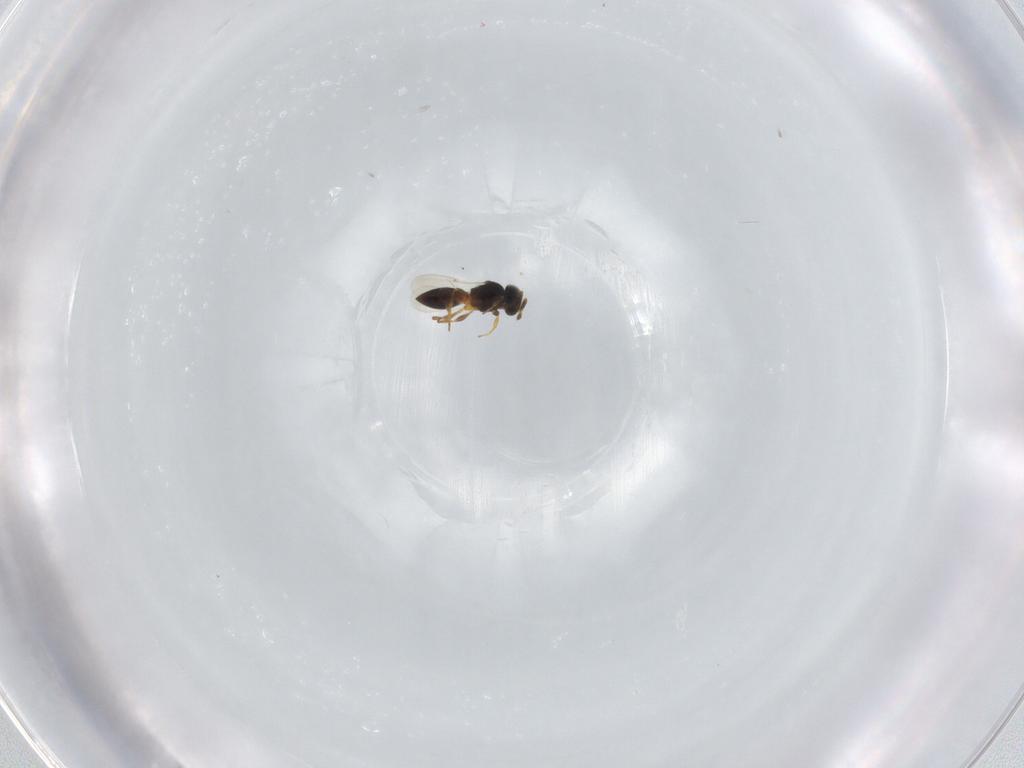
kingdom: Animalia
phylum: Arthropoda
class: Insecta
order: Hymenoptera
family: Platygastridae
